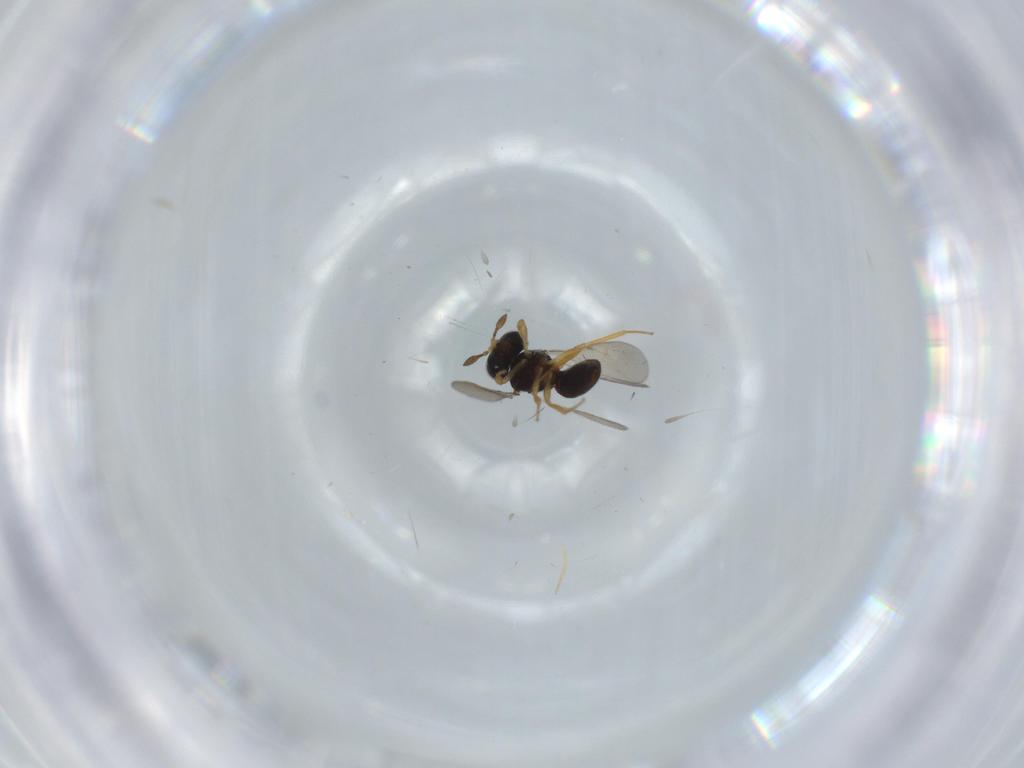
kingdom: Animalia
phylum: Arthropoda
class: Insecta
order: Hymenoptera
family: Scelionidae
